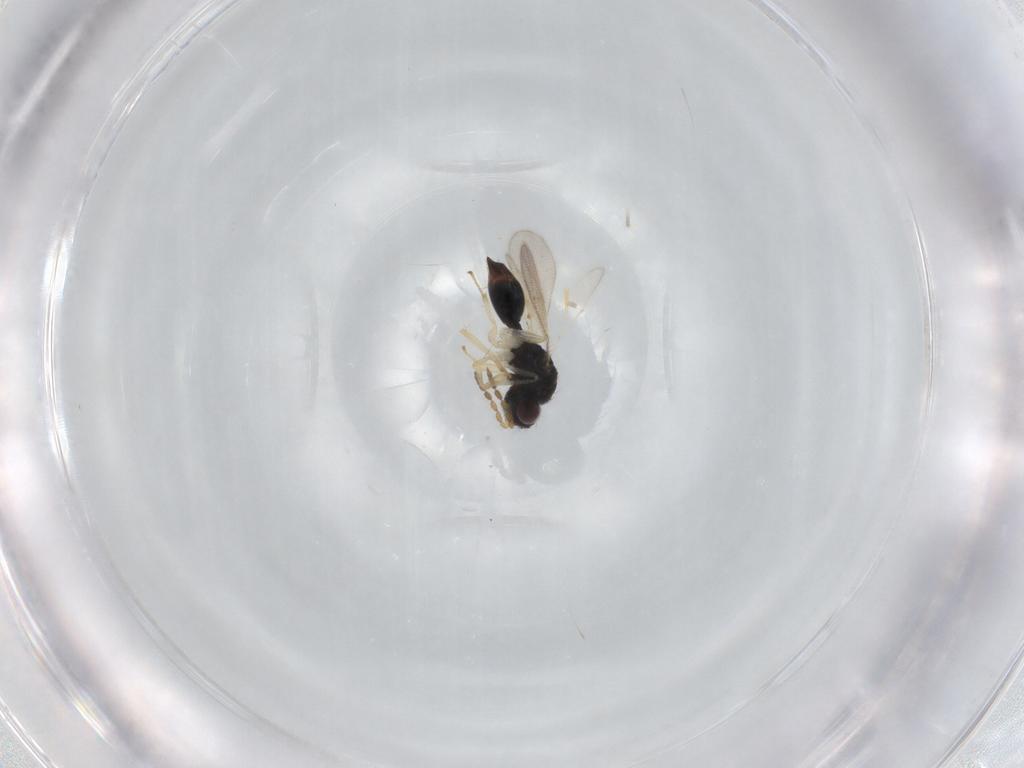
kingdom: Animalia
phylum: Arthropoda
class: Insecta
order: Hymenoptera
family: Eulophidae
